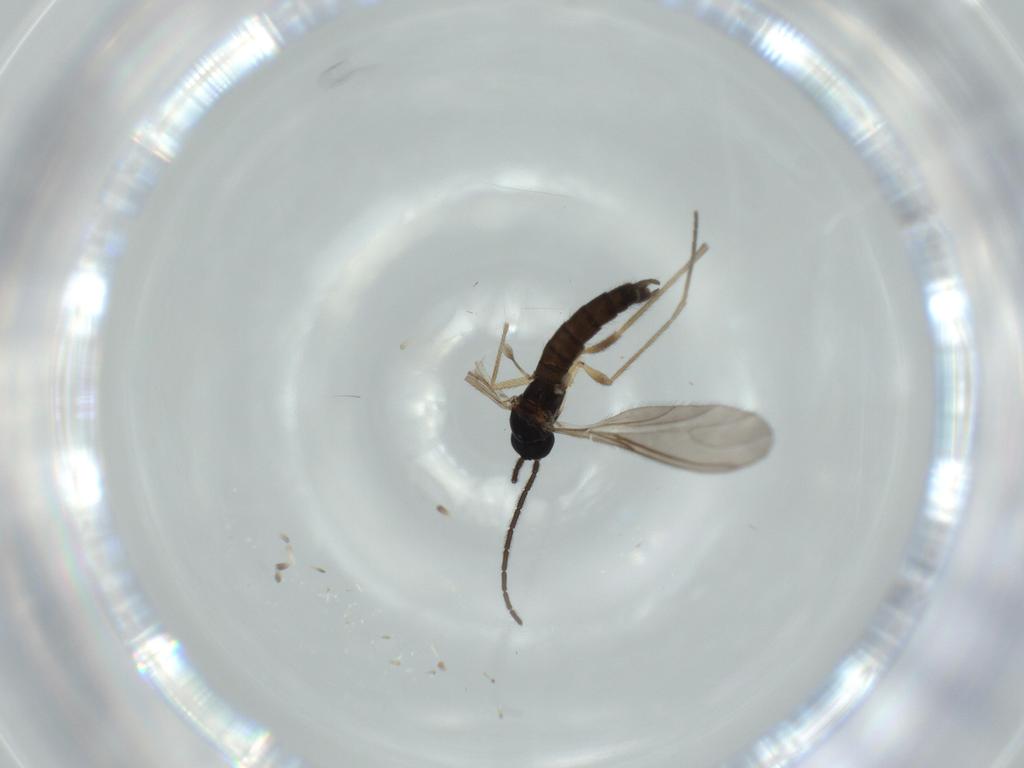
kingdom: Animalia
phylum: Arthropoda
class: Insecta
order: Diptera
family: Sciaridae
